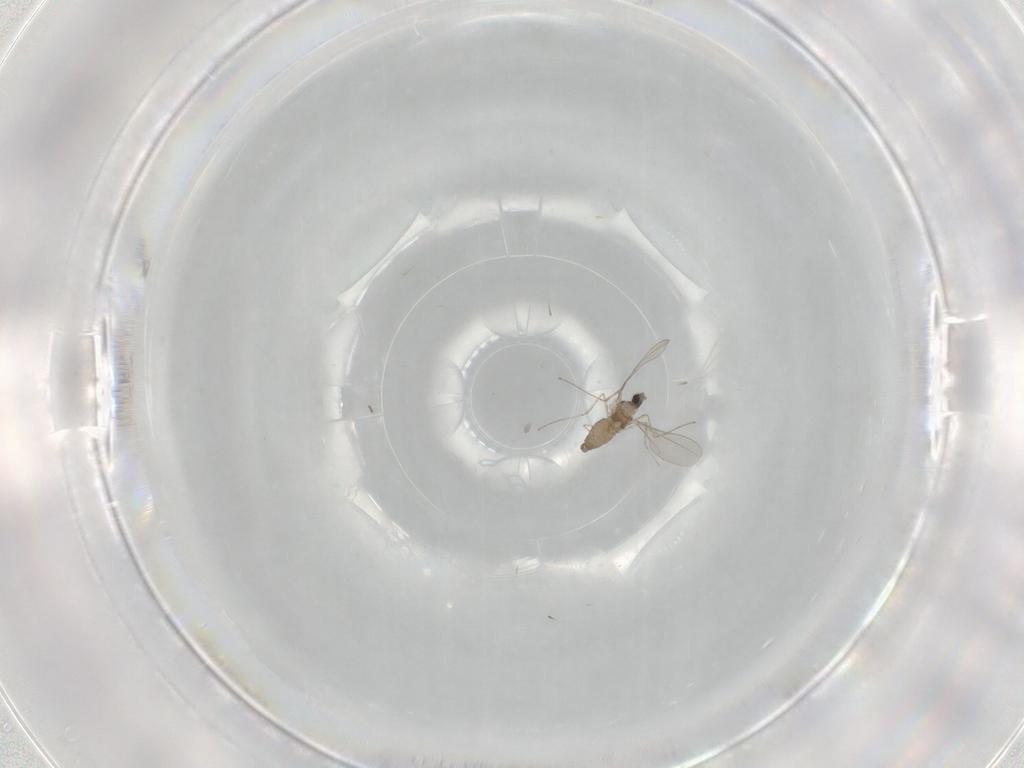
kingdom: Animalia
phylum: Arthropoda
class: Insecta
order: Diptera
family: Cecidomyiidae
